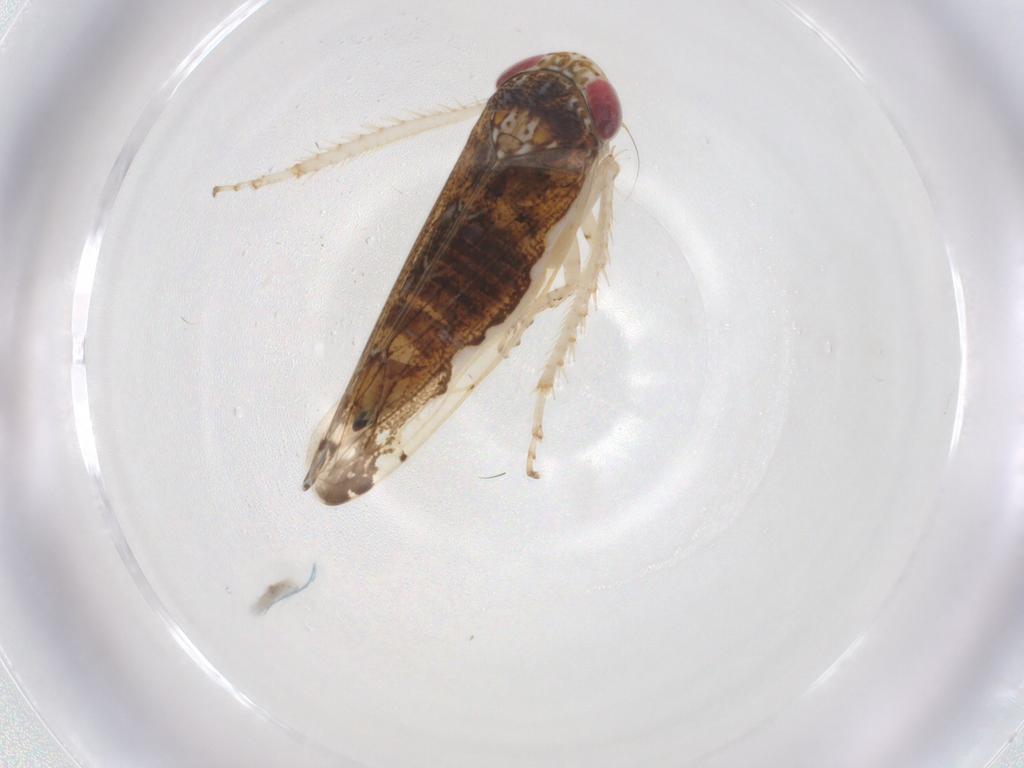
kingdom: Animalia
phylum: Arthropoda
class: Insecta
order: Hemiptera
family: Cicadellidae
